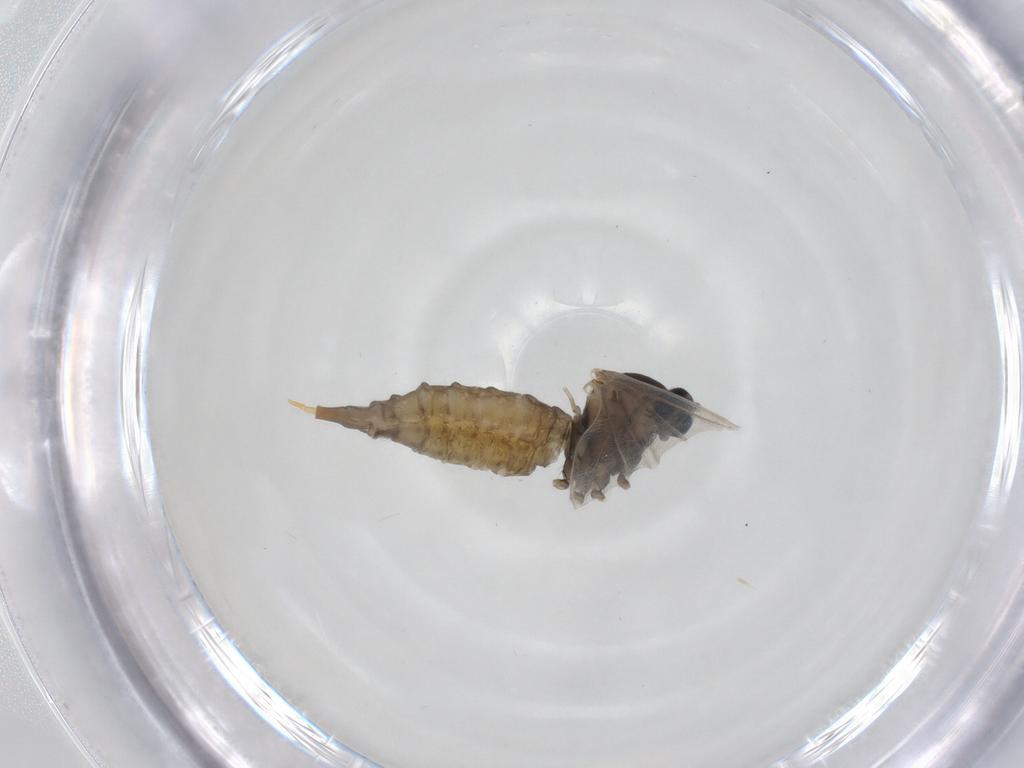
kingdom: Animalia
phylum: Arthropoda
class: Insecta
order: Diptera
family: Cecidomyiidae
